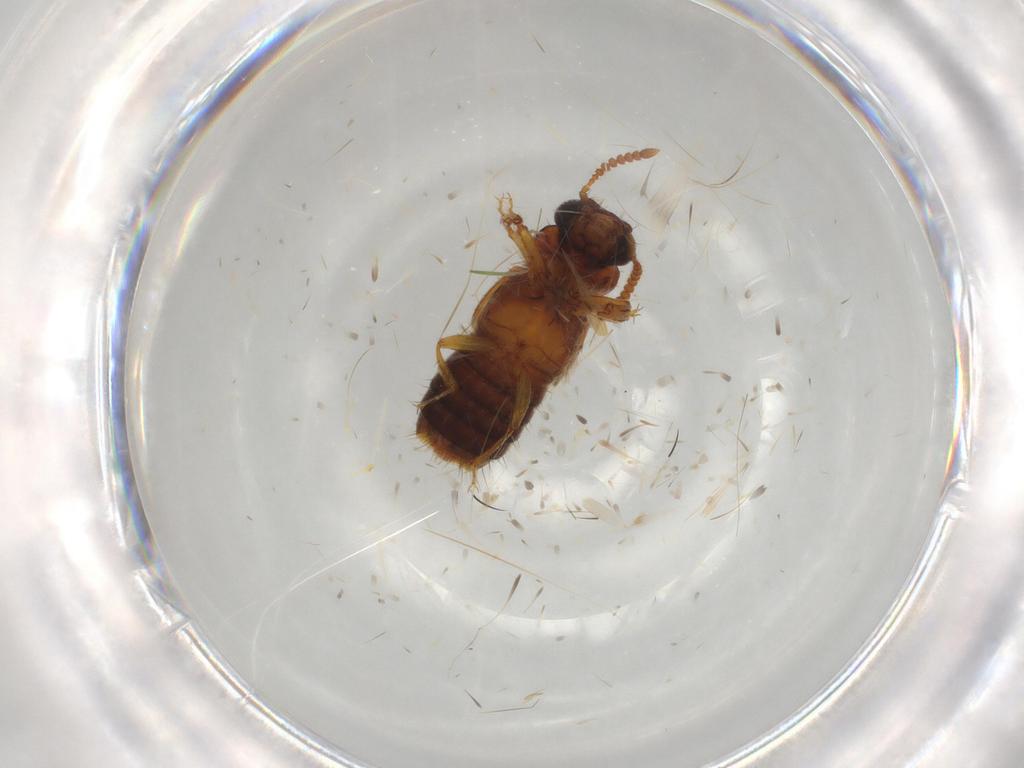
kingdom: Animalia
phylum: Arthropoda
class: Insecta
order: Coleoptera
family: Staphylinidae
